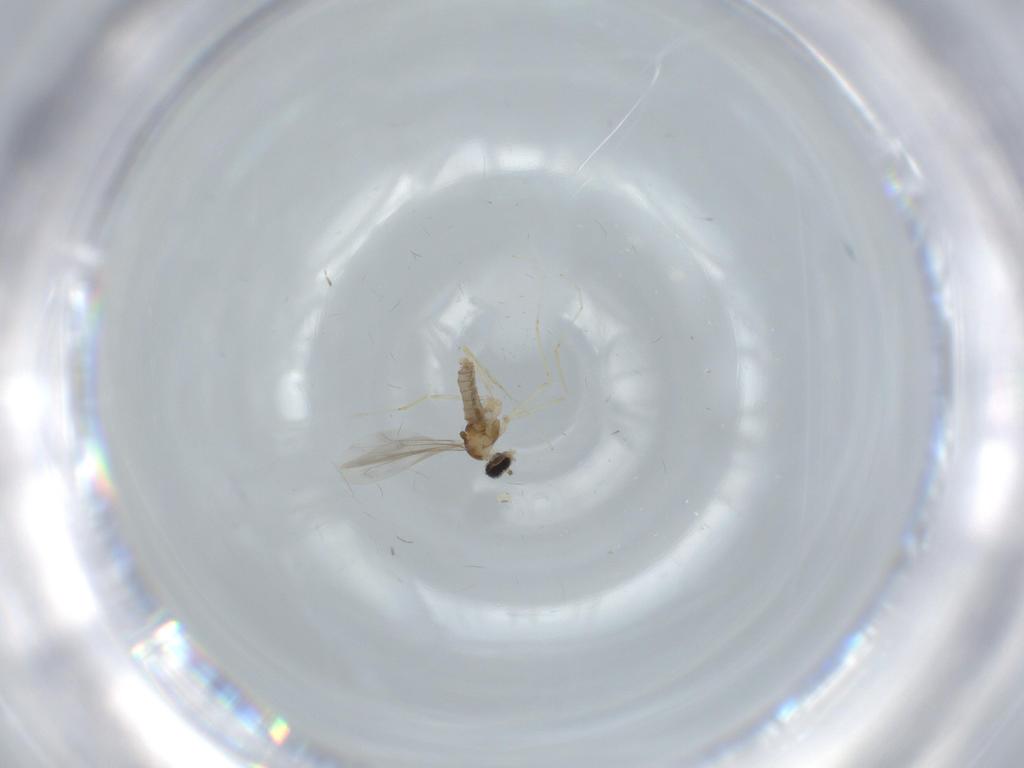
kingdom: Animalia
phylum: Arthropoda
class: Insecta
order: Diptera
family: Cecidomyiidae
